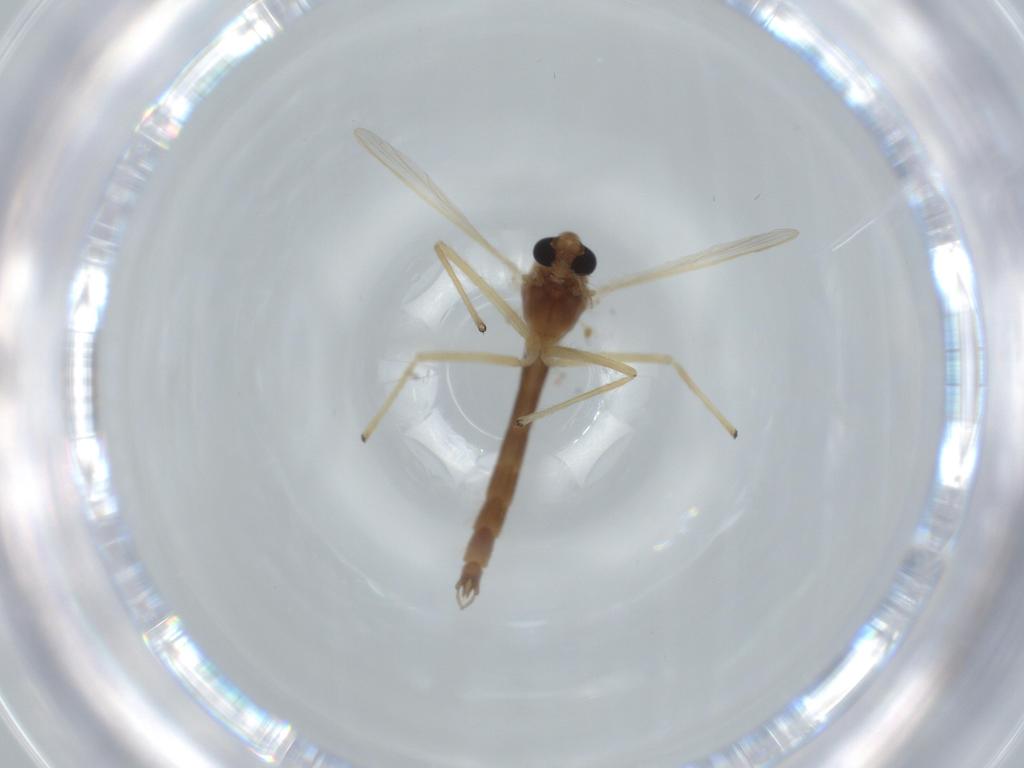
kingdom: Animalia
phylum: Arthropoda
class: Insecta
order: Diptera
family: Sciaridae
